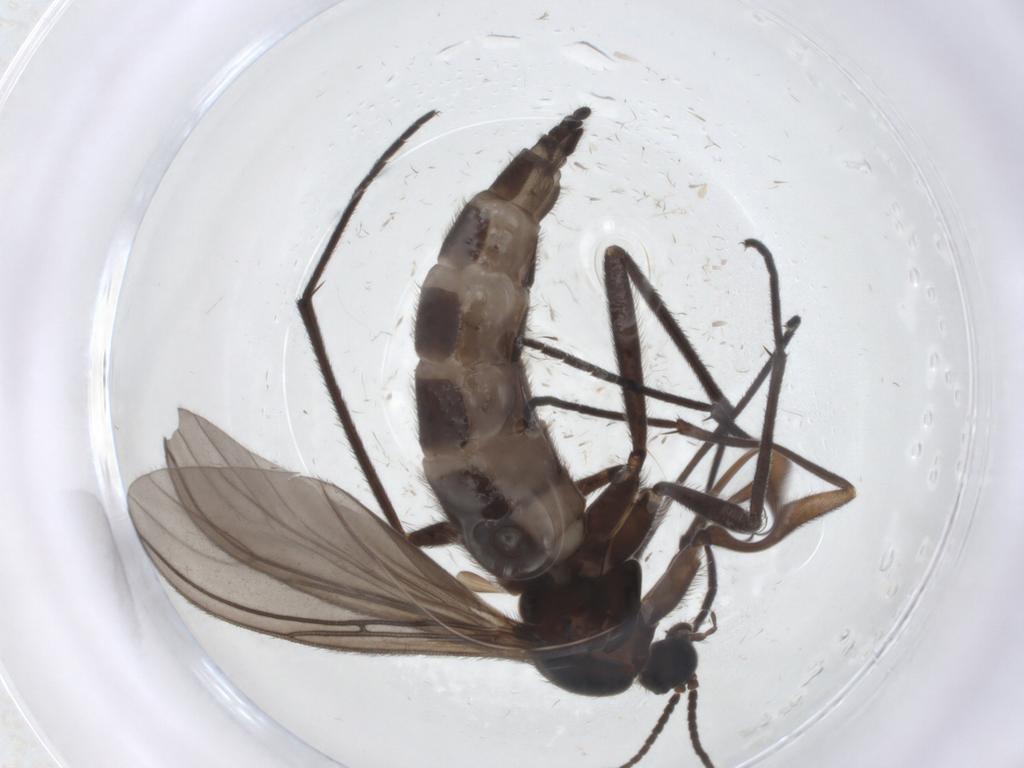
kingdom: Animalia
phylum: Arthropoda
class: Insecta
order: Diptera
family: Sciaridae
